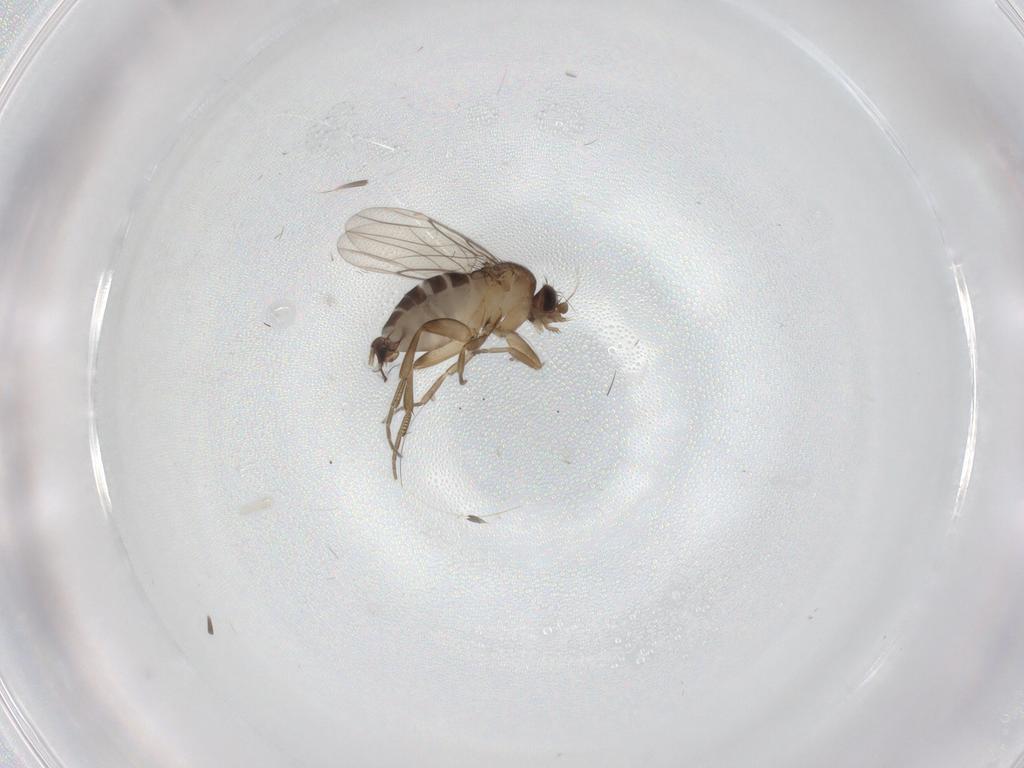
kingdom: Animalia
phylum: Arthropoda
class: Insecta
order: Diptera
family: Phoridae
